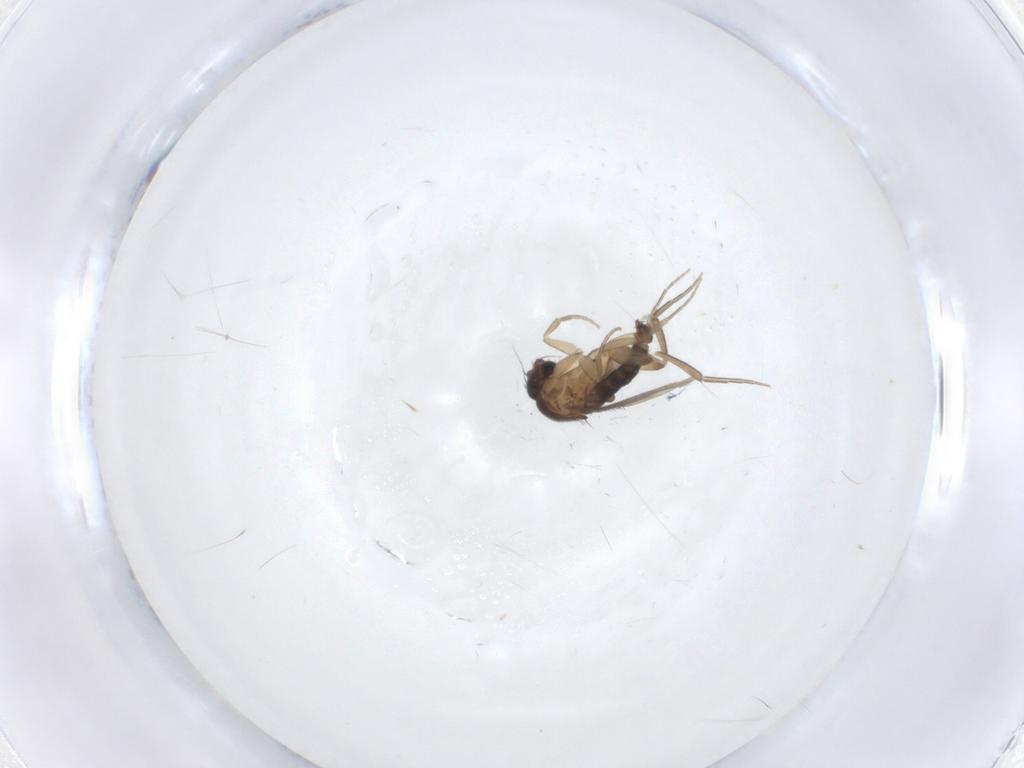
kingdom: Animalia
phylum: Arthropoda
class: Insecta
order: Diptera
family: Phoridae
